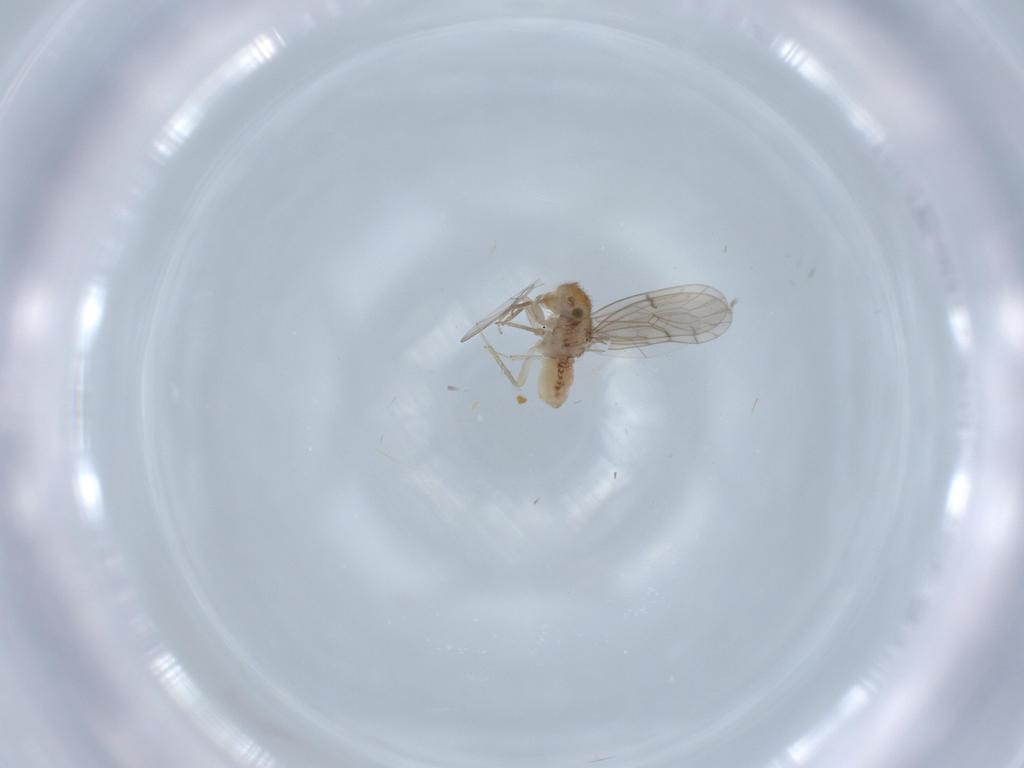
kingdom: Animalia
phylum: Arthropoda
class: Insecta
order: Psocodea
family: Ectopsocidae
